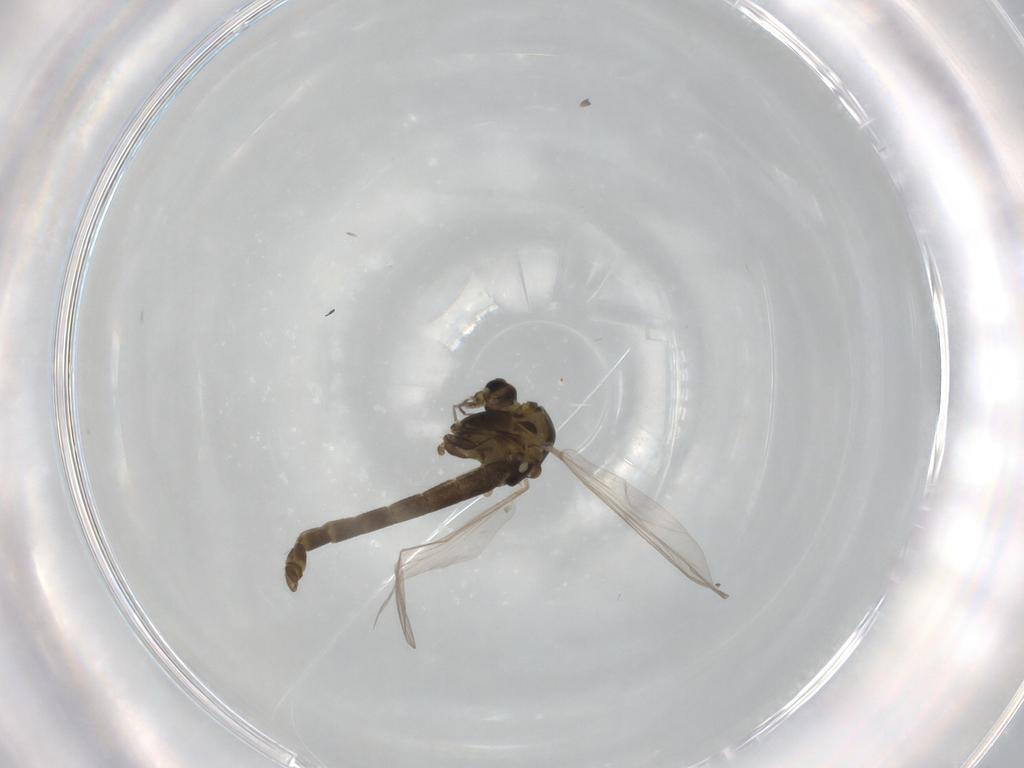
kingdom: Animalia
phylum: Arthropoda
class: Insecta
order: Diptera
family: Chironomidae
